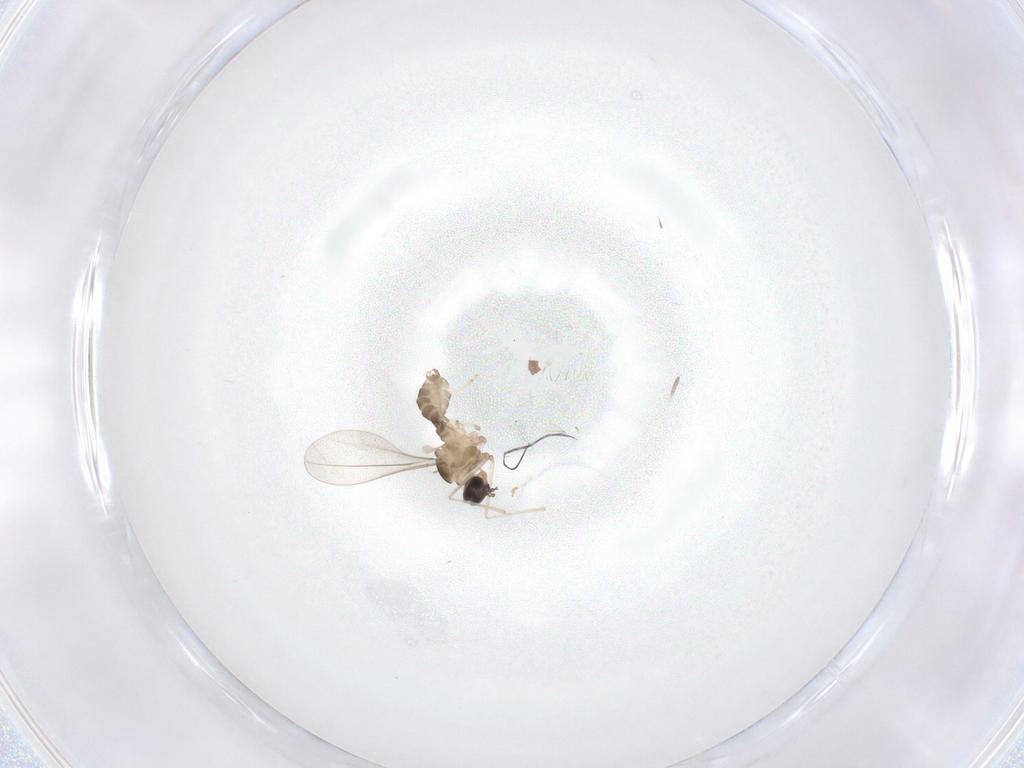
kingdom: Animalia
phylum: Arthropoda
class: Insecta
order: Diptera
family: Cecidomyiidae
